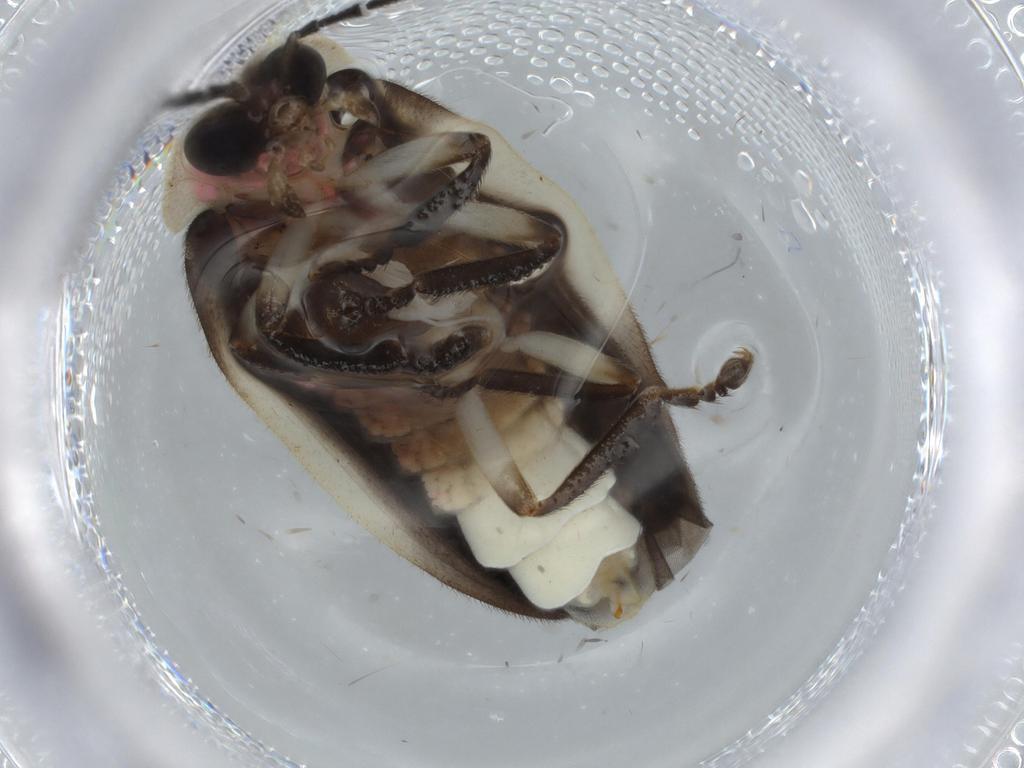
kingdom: Animalia
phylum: Arthropoda
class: Insecta
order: Coleoptera
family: Lampyridae
